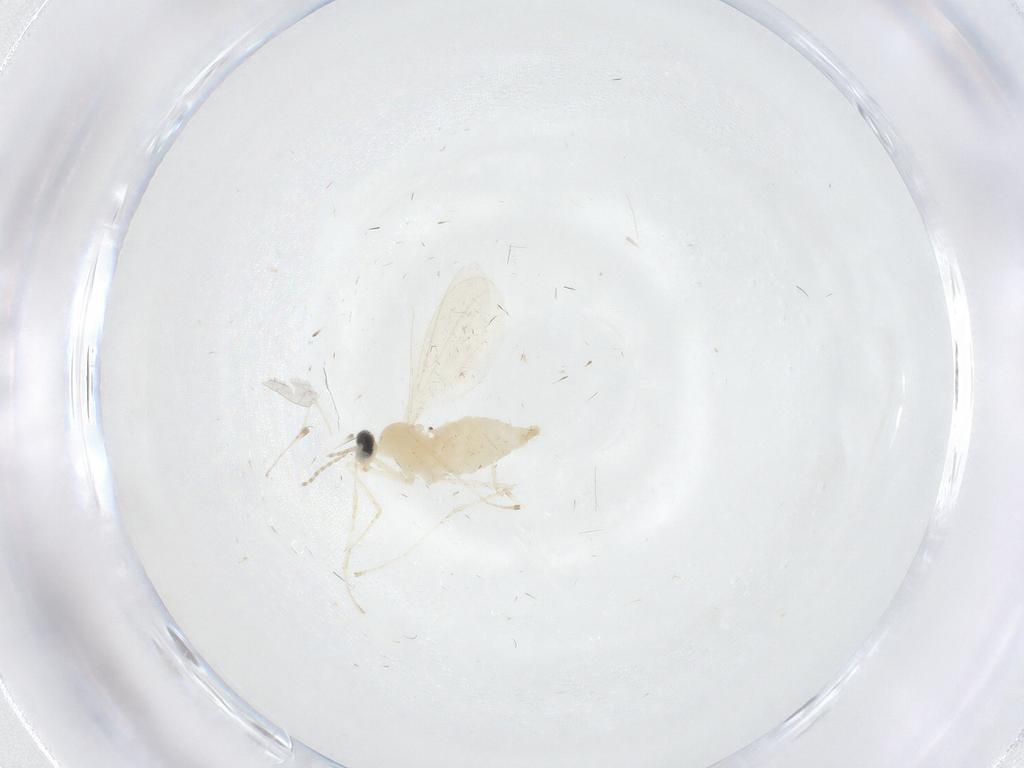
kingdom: Animalia
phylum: Arthropoda
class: Insecta
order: Diptera
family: Cecidomyiidae
